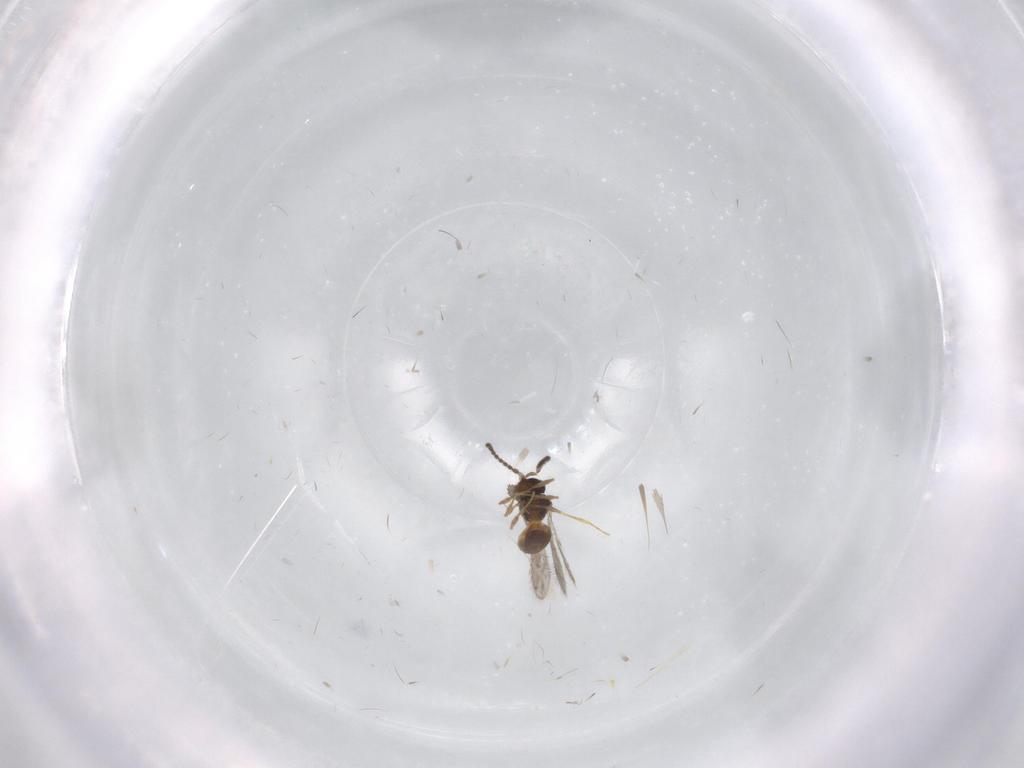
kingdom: Animalia
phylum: Arthropoda
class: Insecta
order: Hymenoptera
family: Scelionidae
